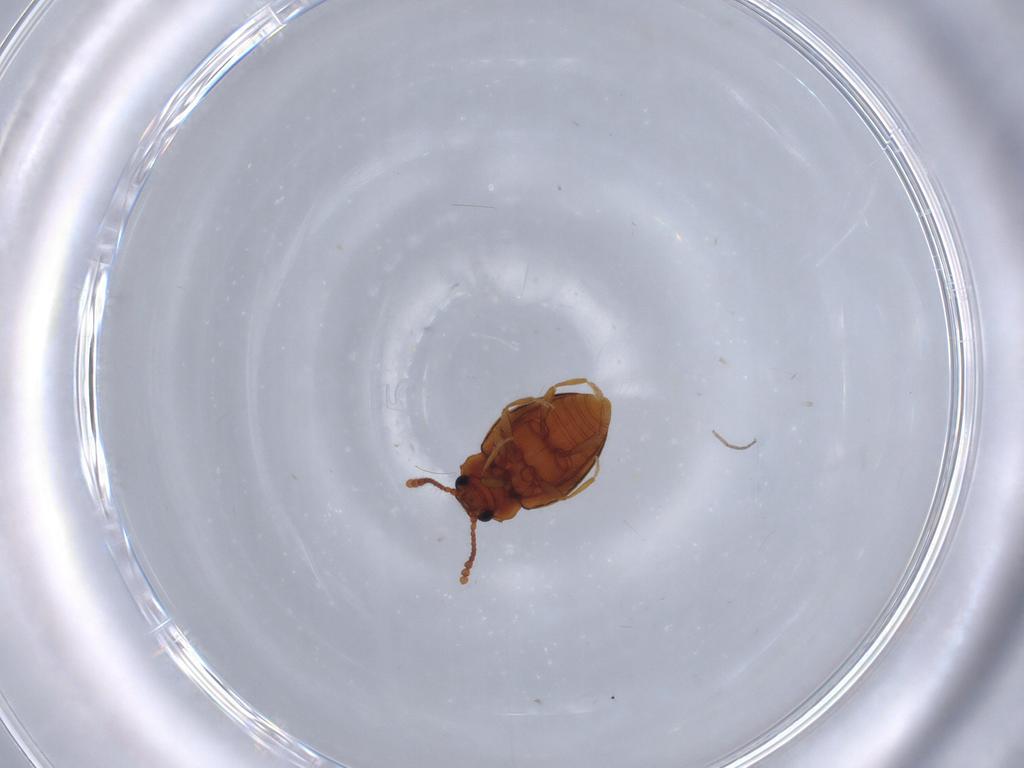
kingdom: Animalia
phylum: Arthropoda
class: Insecta
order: Coleoptera
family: Erotylidae
